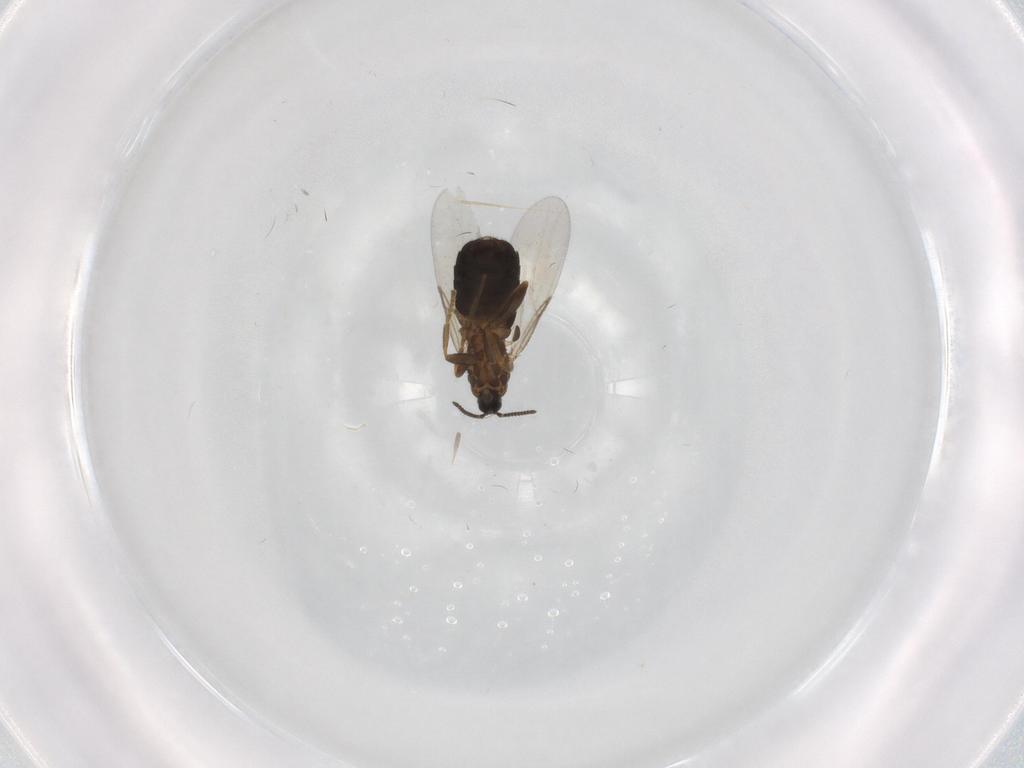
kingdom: Animalia
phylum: Arthropoda
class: Insecta
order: Diptera
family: Scatopsidae
